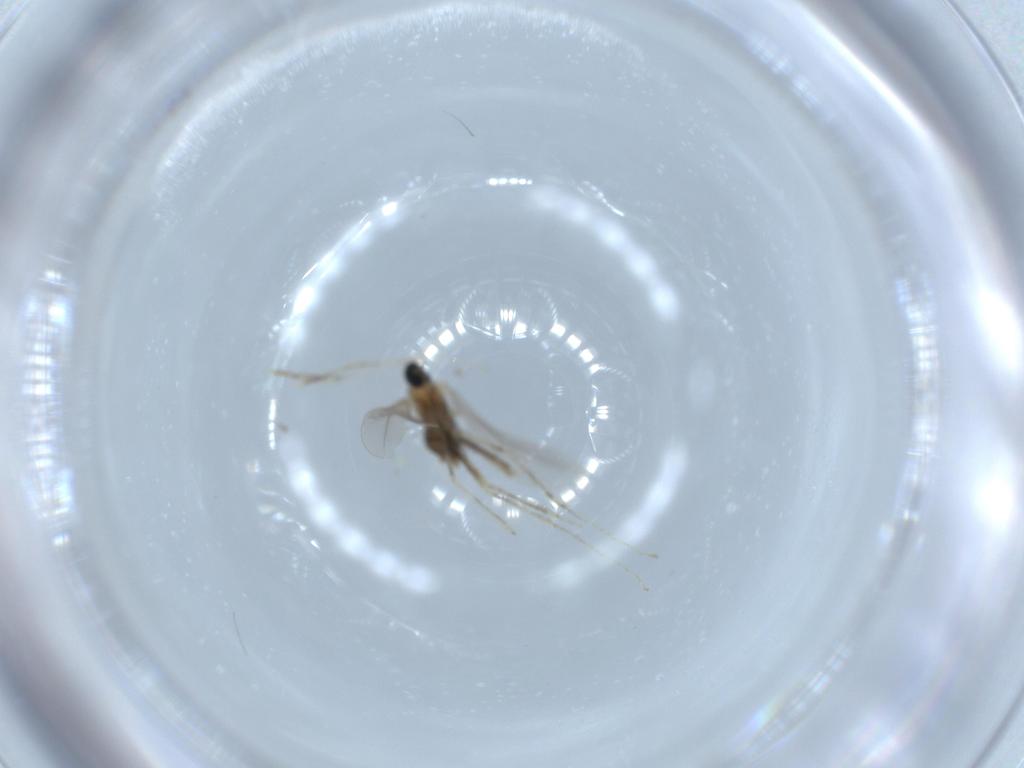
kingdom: Animalia
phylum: Arthropoda
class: Insecta
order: Diptera
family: Cecidomyiidae
